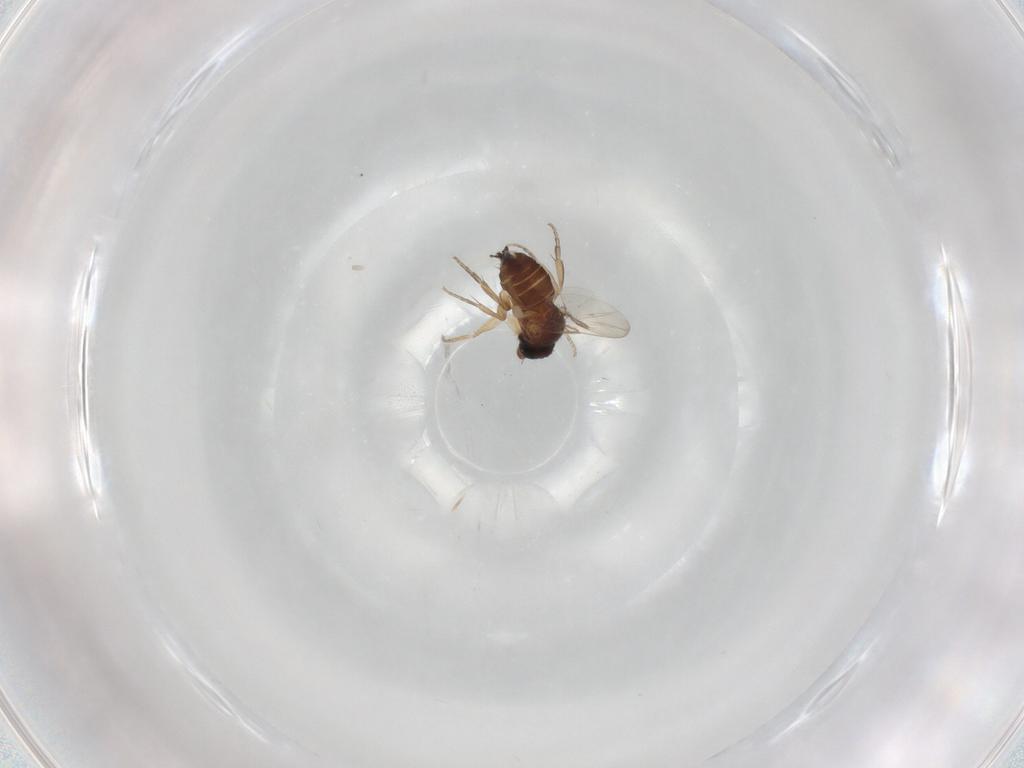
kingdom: Animalia
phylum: Arthropoda
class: Insecta
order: Diptera
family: Phoridae
